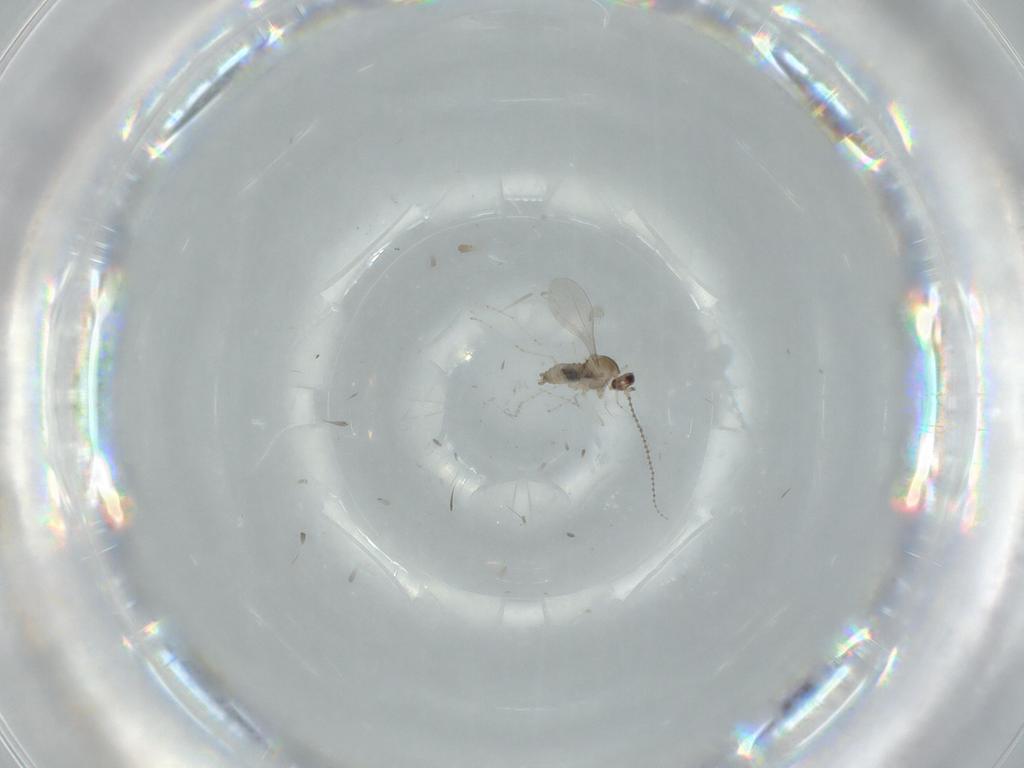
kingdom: Animalia
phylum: Arthropoda
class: Insecta
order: Diptera
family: Cecidomyiidae
